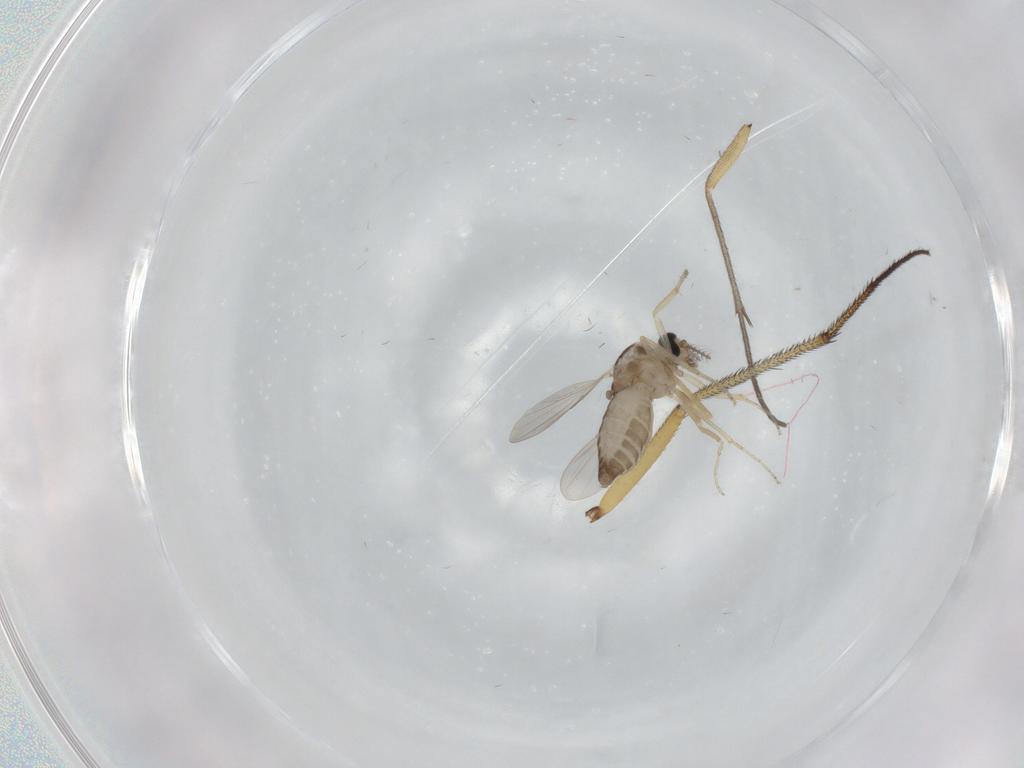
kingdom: Animalia
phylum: Arthropoda
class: Insecta
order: Diptera
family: Ceratopogonidae
